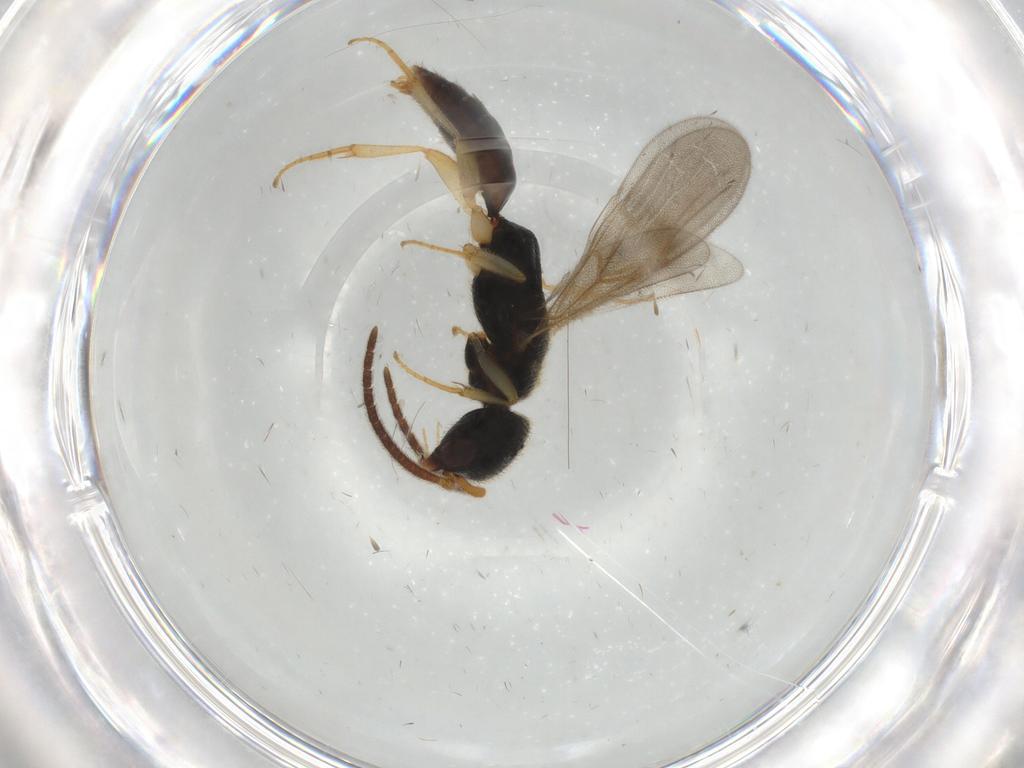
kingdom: Animalia
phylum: Arthropoda
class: Insecta
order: Hymenoptera
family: Bethylidae
